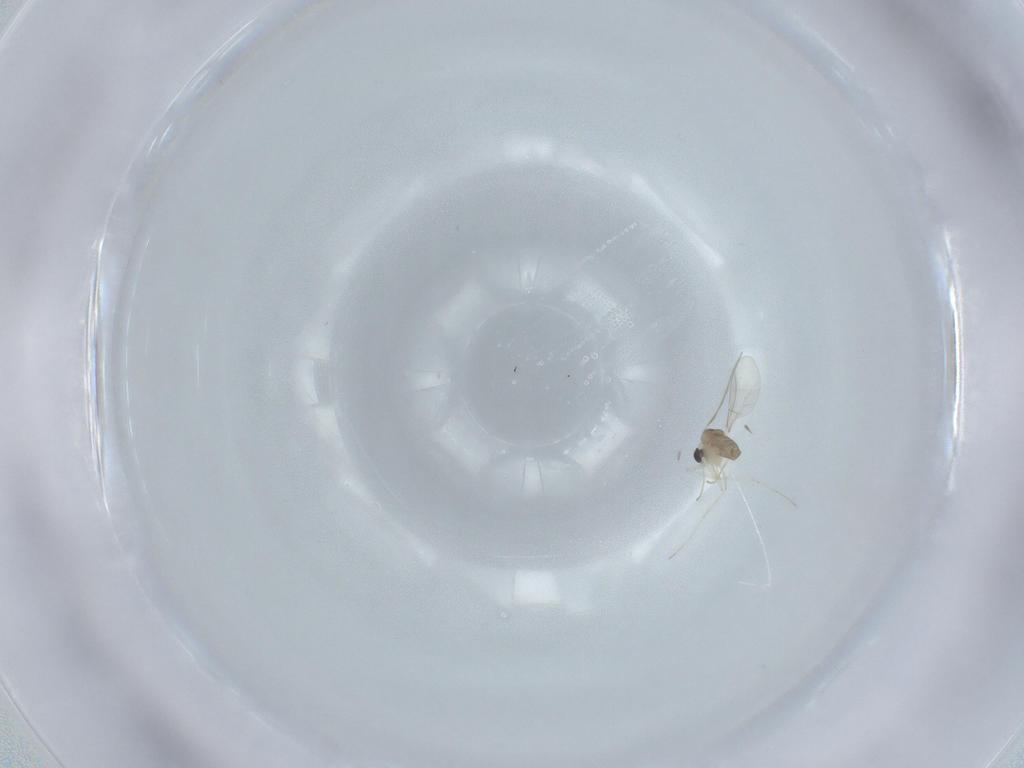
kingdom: Animalia
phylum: Arthropoda
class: Insecta
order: Diptera
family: Cecidomyiidae
